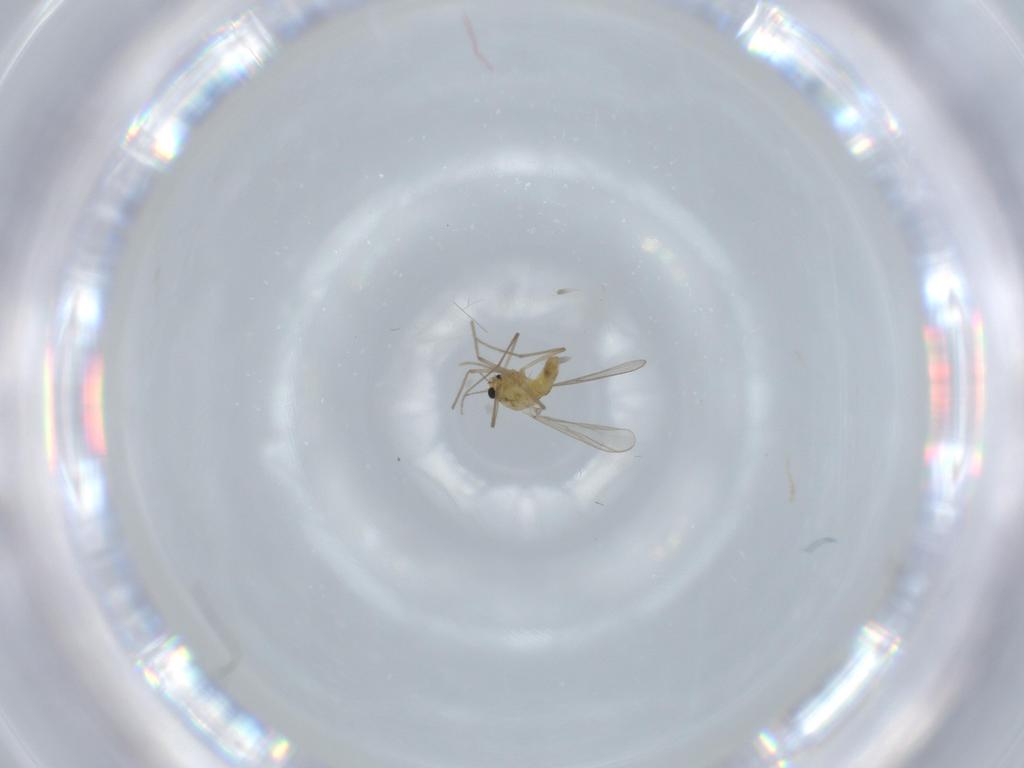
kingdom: Animalia
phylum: Arthropoda
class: Insecta
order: Diptera
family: Chironomidae
